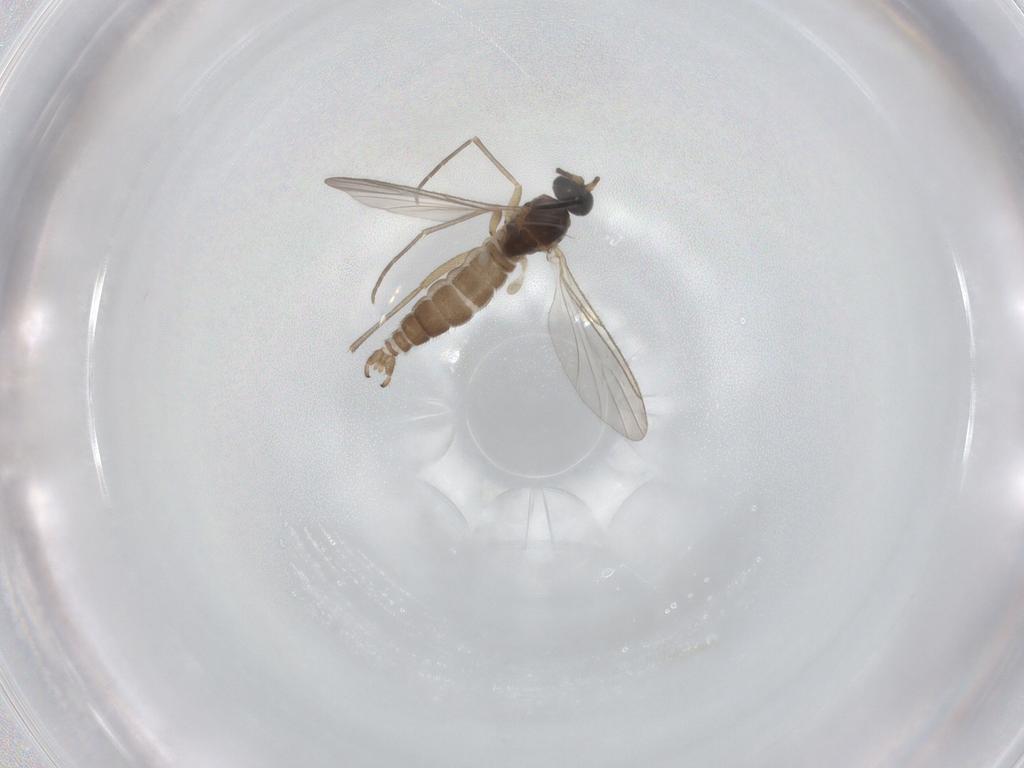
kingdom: Animalia
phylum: Arthropoda
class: Insecta
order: Diptera
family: Sciaridae
